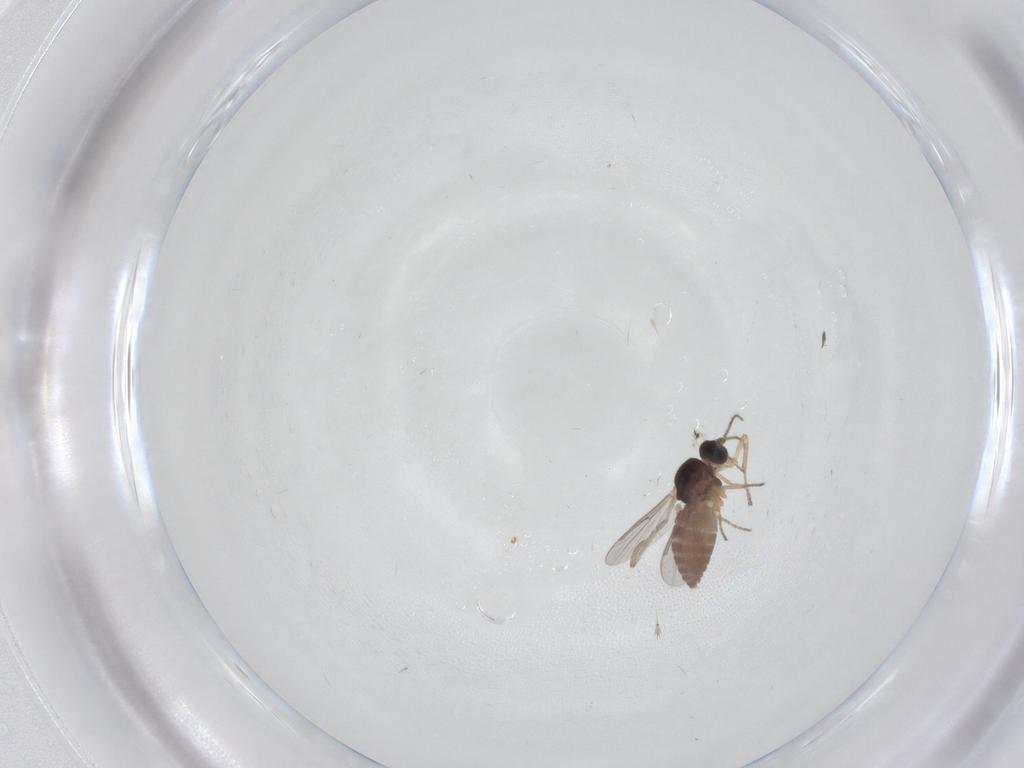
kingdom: Animalia
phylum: Arthropoda
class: Insecta
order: Diptera
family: Ceratopogonidae
